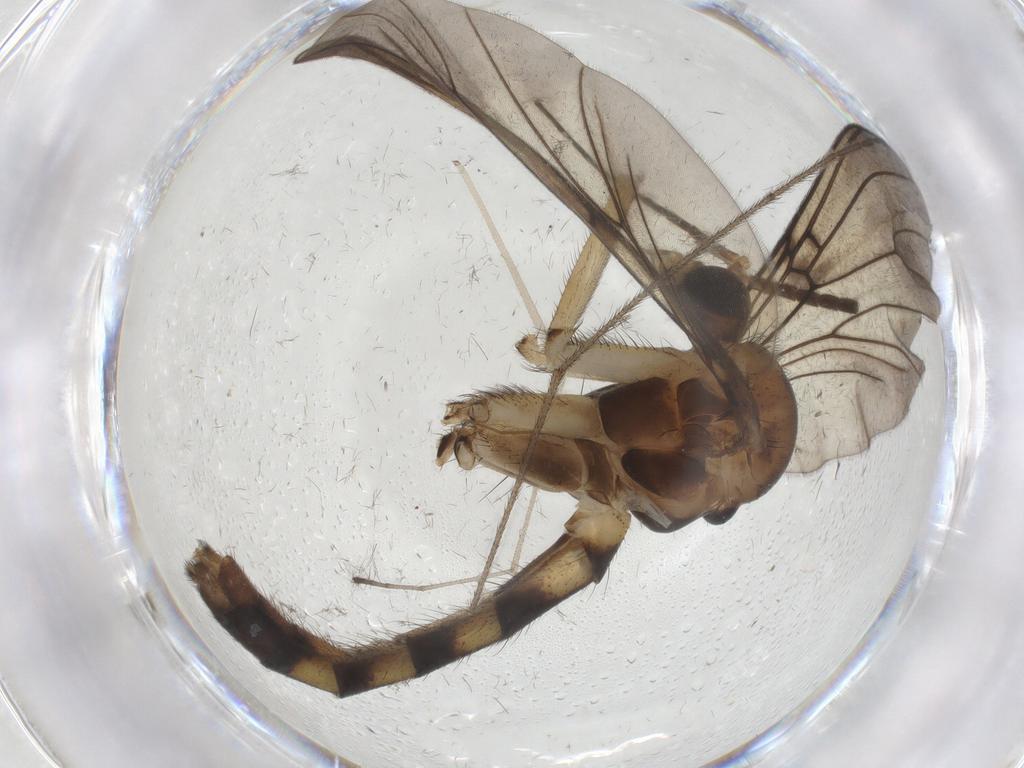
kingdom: Animalia
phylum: Arthropoda
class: Insecta
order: Diptera
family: Mycetophilidae
